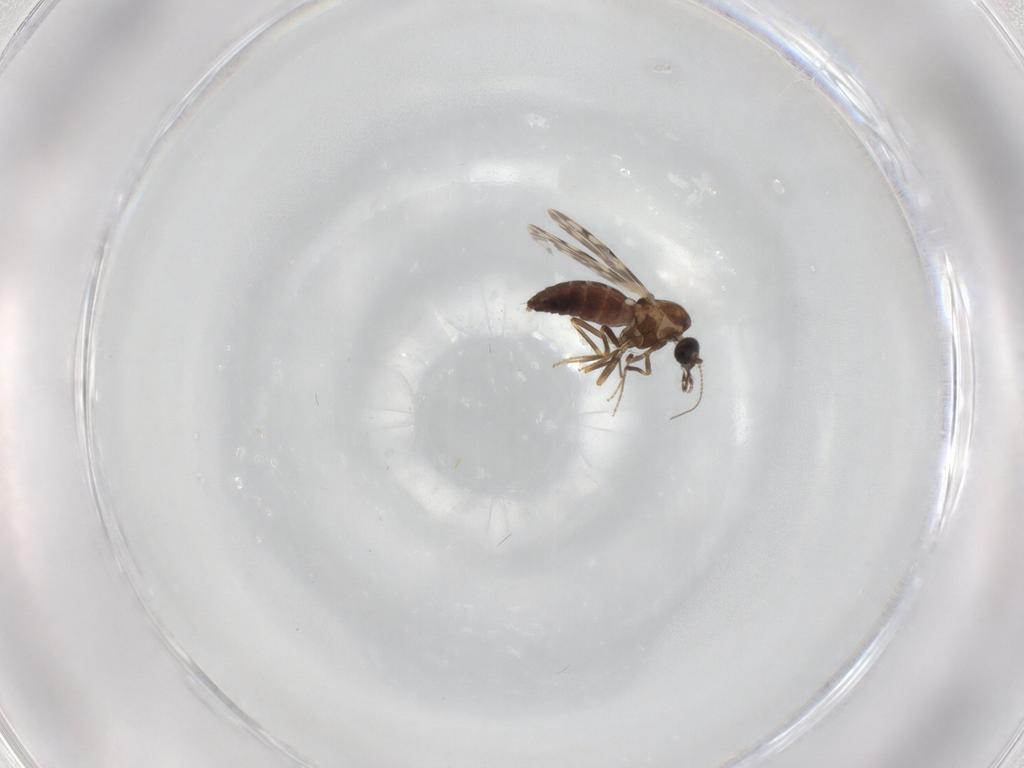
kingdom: Animalia
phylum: Arthropoda
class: Insecta
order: Diptera
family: Ceratopogonidae
